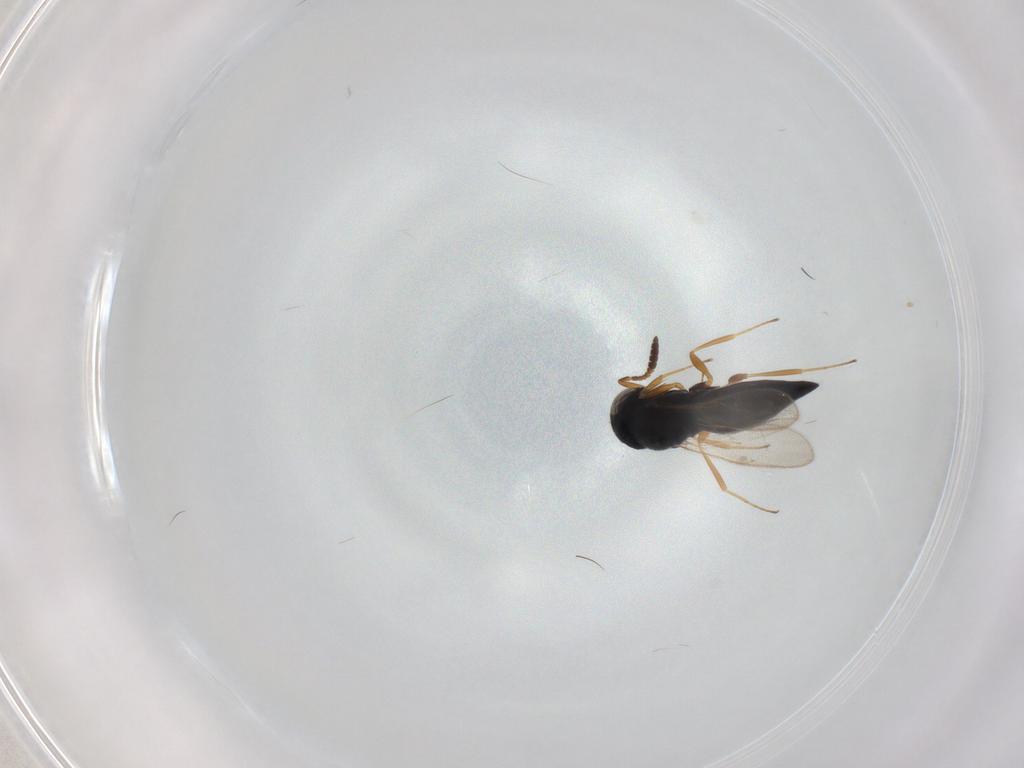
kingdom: Animalia
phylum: Arthropoda
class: Insecta
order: Hymenoptera
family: Scelionidae
